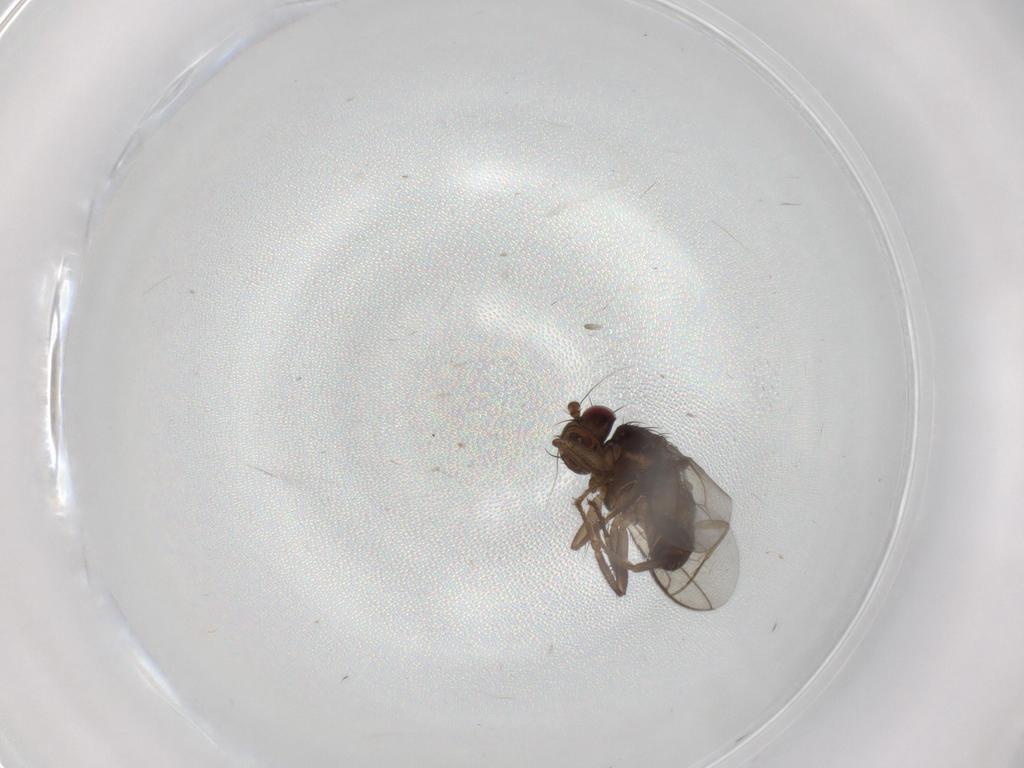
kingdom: Animalia
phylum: Arthropoda
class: Insecta
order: Diptera
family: Sphaeroceridae
